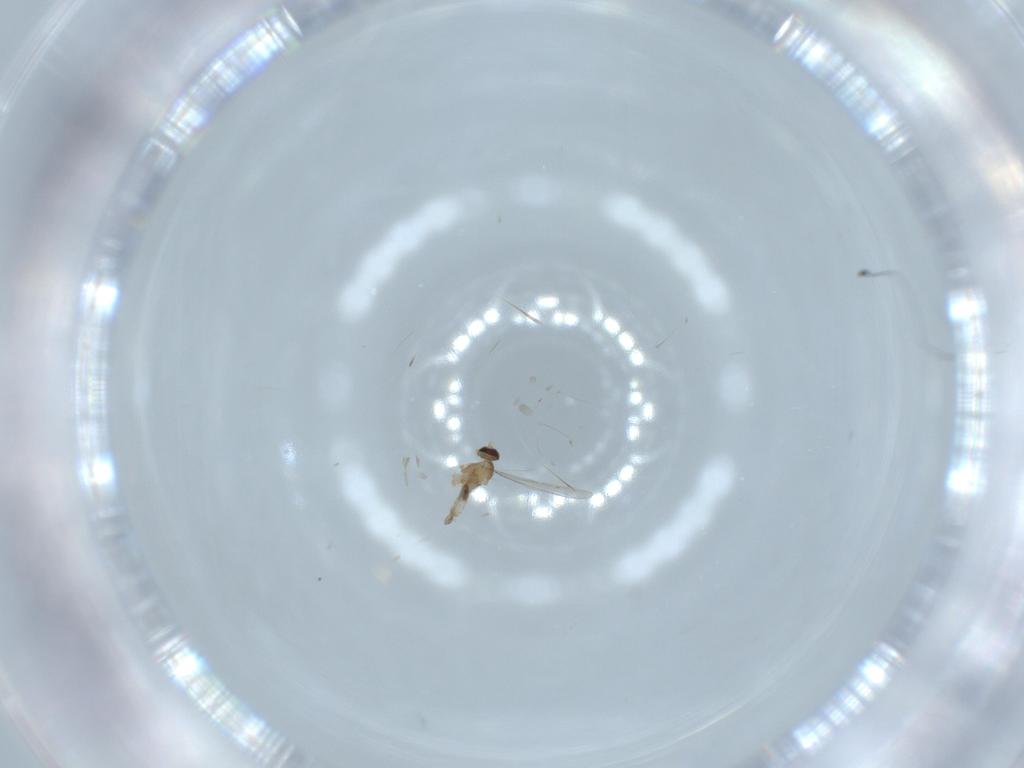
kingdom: Animalia
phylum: Arthropoda
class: Insecta
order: Diptera
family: Cecidomyiidae
